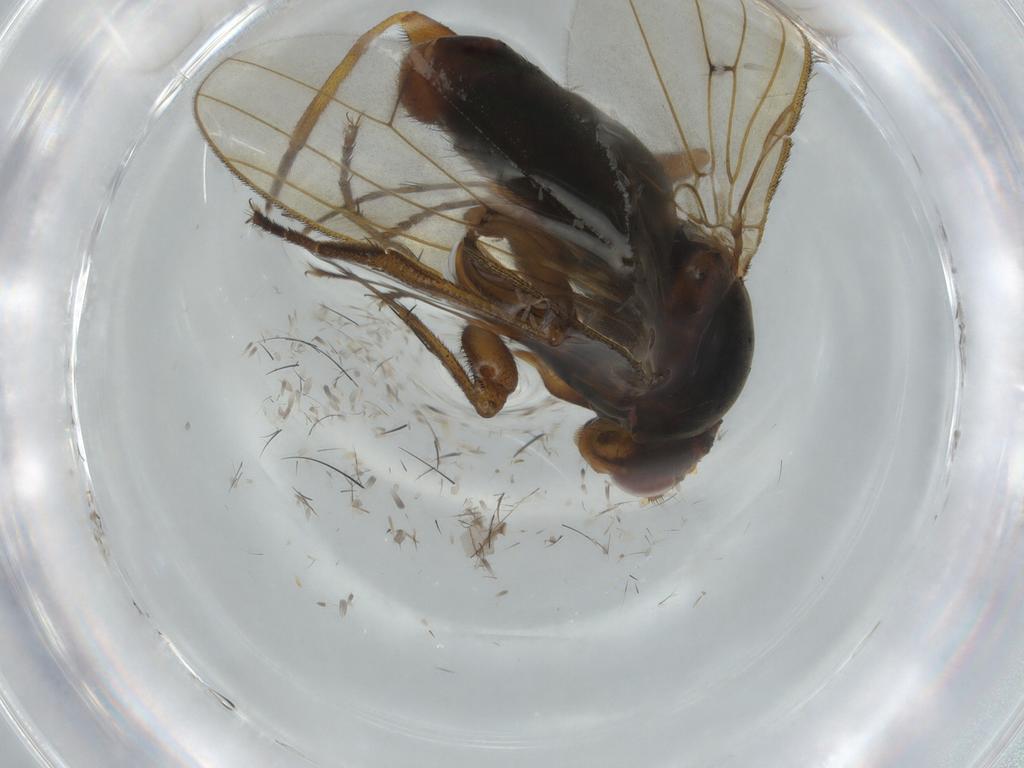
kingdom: Animalia
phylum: Arthropoda
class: Insecta
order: Diptera
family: Heleomyzidae
